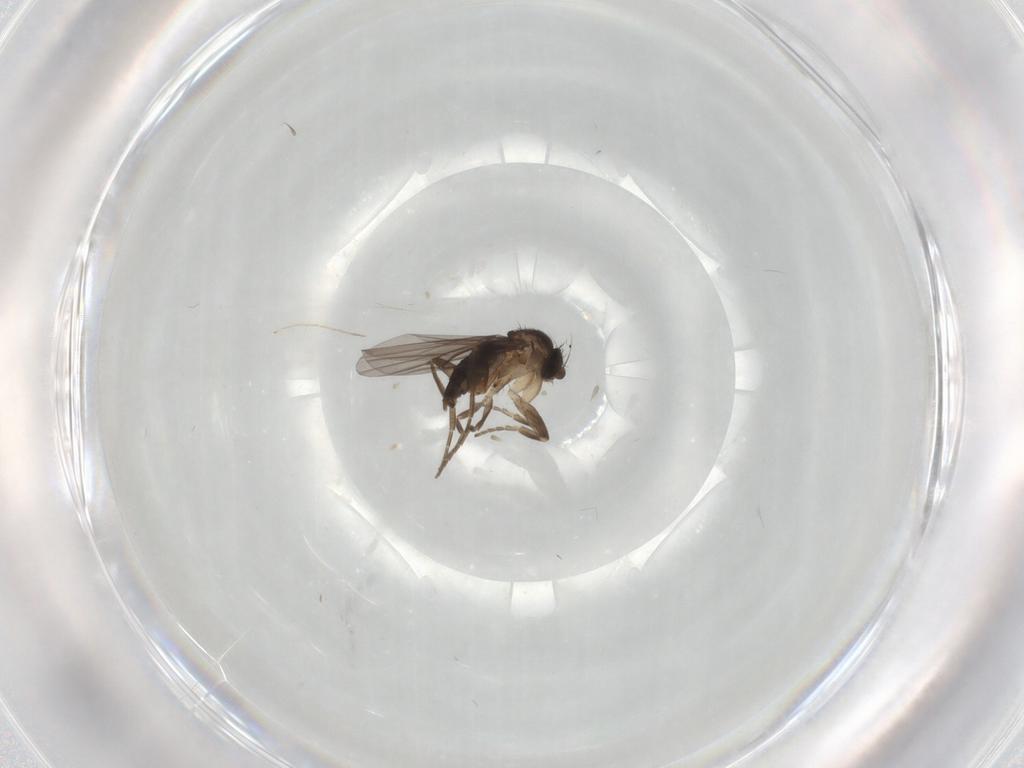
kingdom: Animalia
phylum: Arthropoda
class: Insecta
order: Diptera
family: Phoridae
